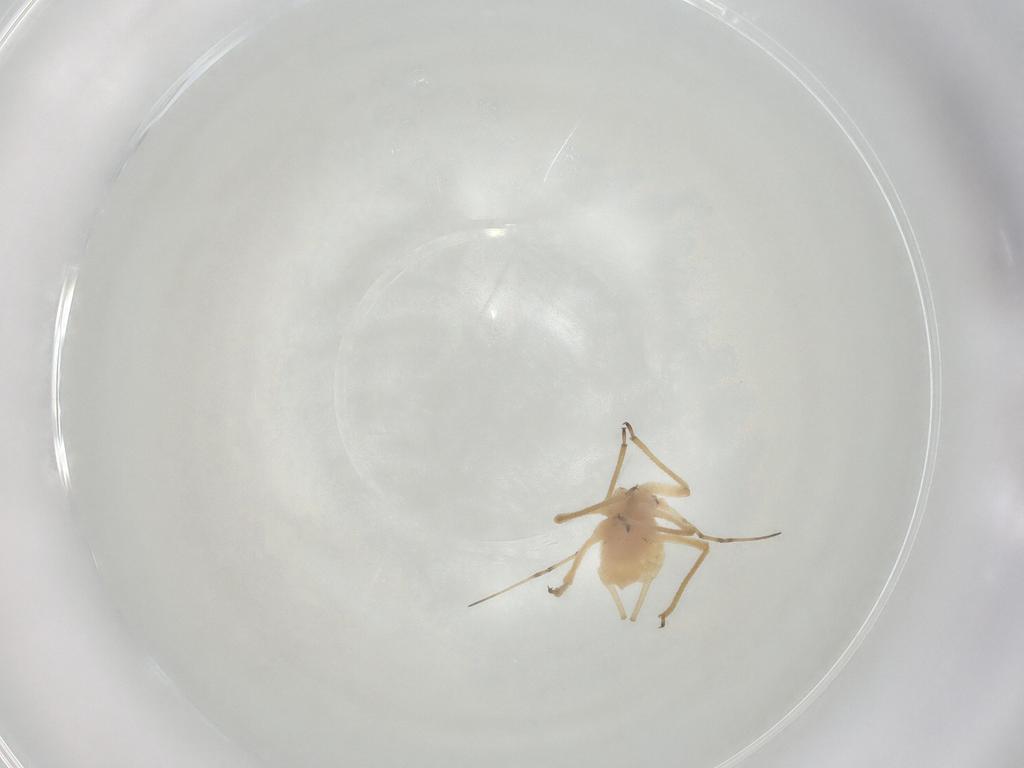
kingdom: Animalia
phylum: Arthropoda
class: Insecta
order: Hemiptera
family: Aphididae
